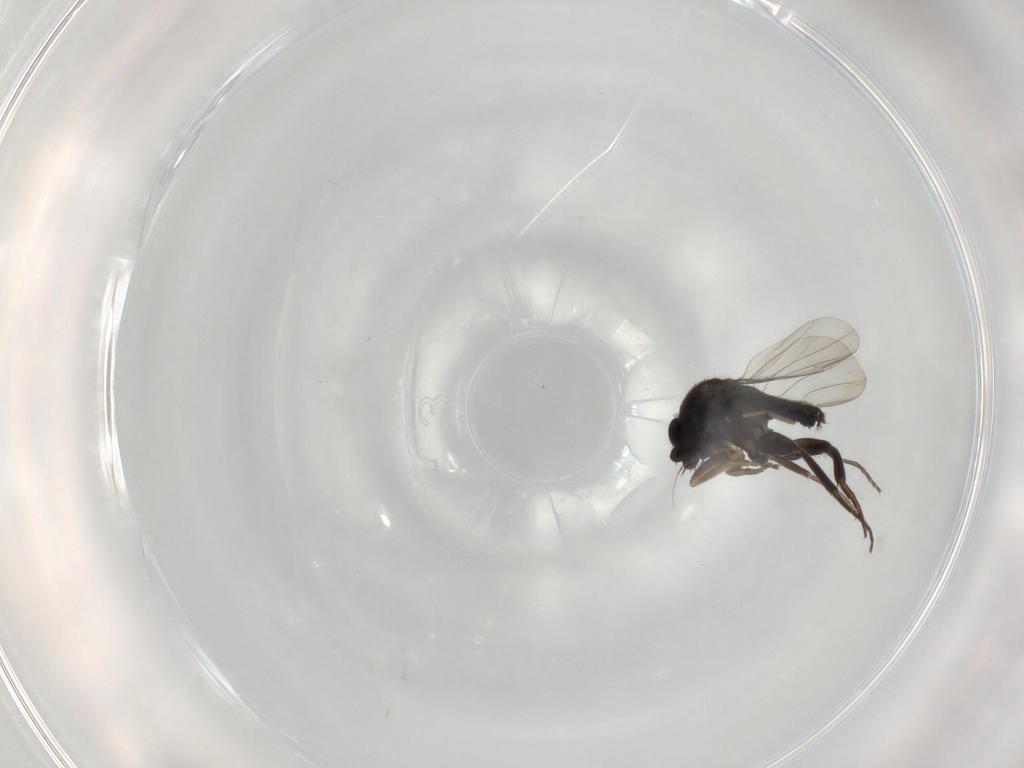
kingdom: Animalia
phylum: Arthropoda
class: Insecta
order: Diptera
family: Phoridae
